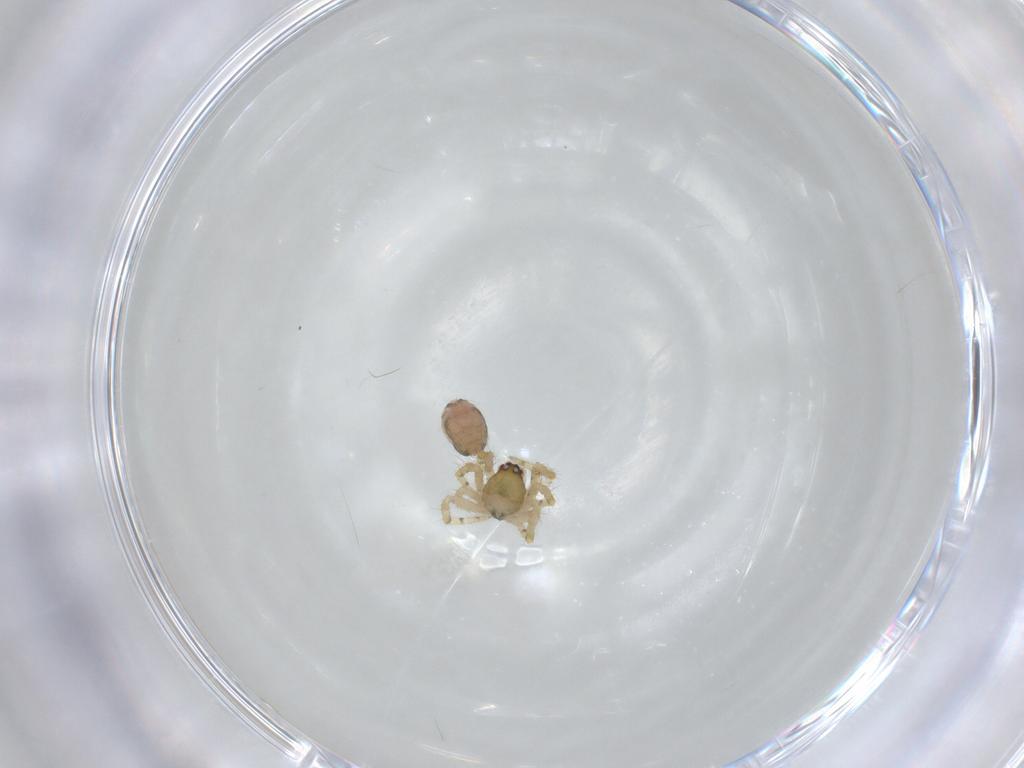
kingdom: Animalia
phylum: Arthropoda
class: Arachnida
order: Araneae
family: Theridiidae
